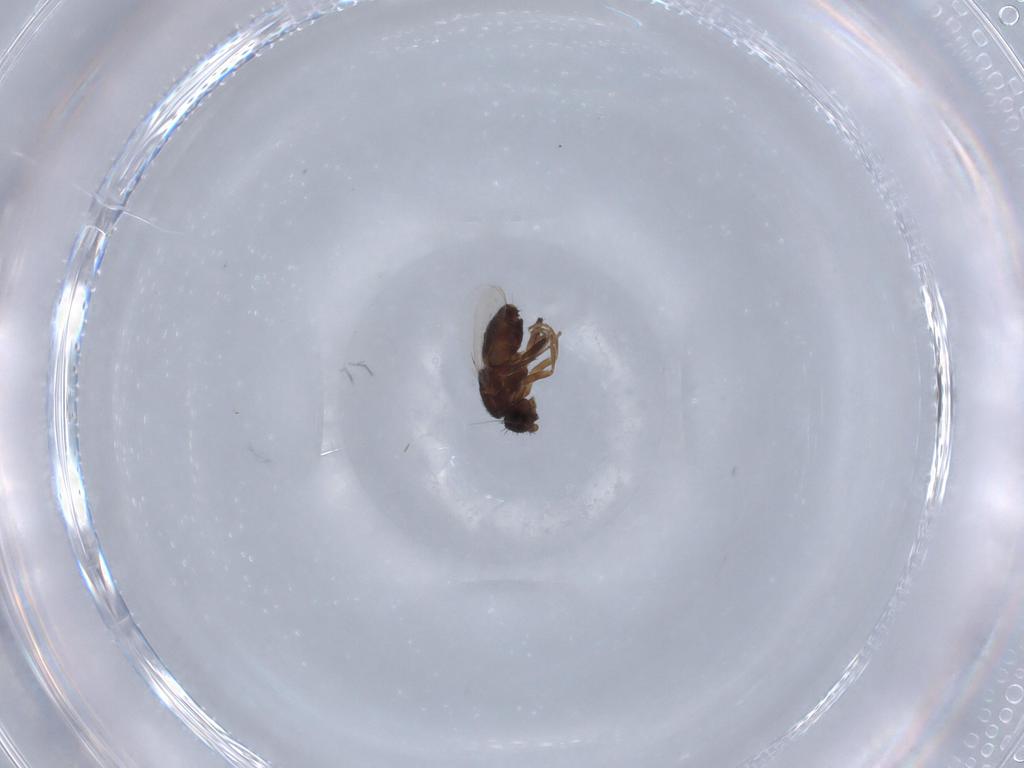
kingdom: Animalia
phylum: Arthropoda
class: Insecta
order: Diptera
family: Sphaeroceridae
